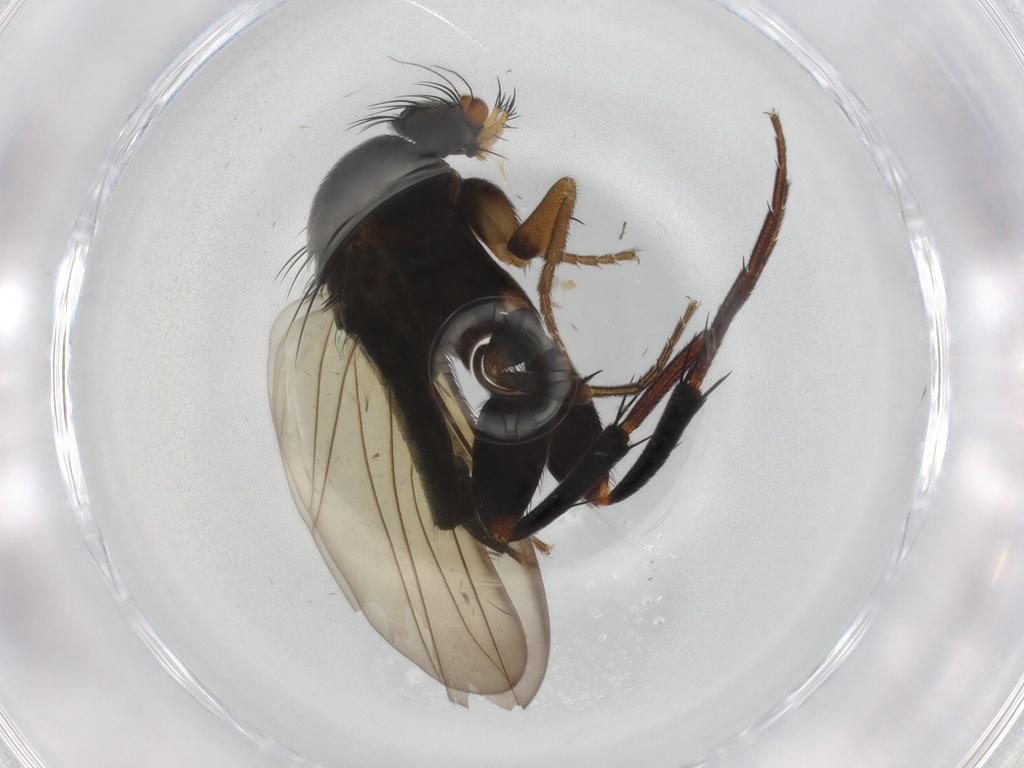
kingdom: Animalia
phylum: Arthropoda
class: Insecta
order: Diptera
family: Phoridae
